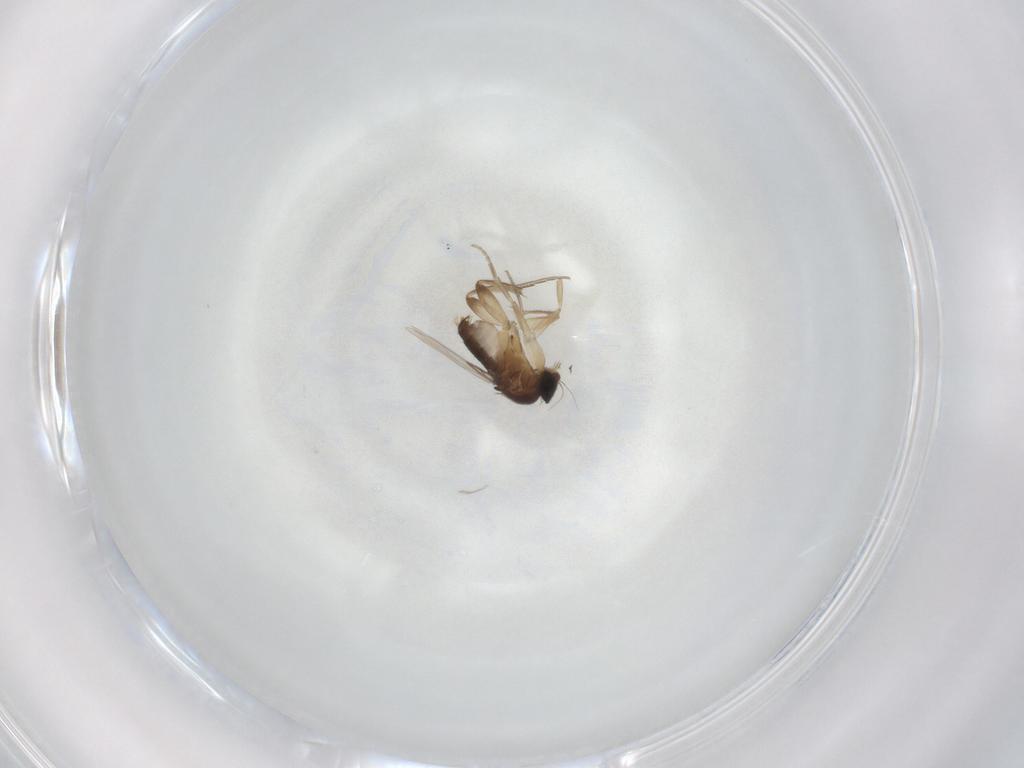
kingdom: Animalia
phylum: Arthropoda
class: Insecta
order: Diptera
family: Phoridae
